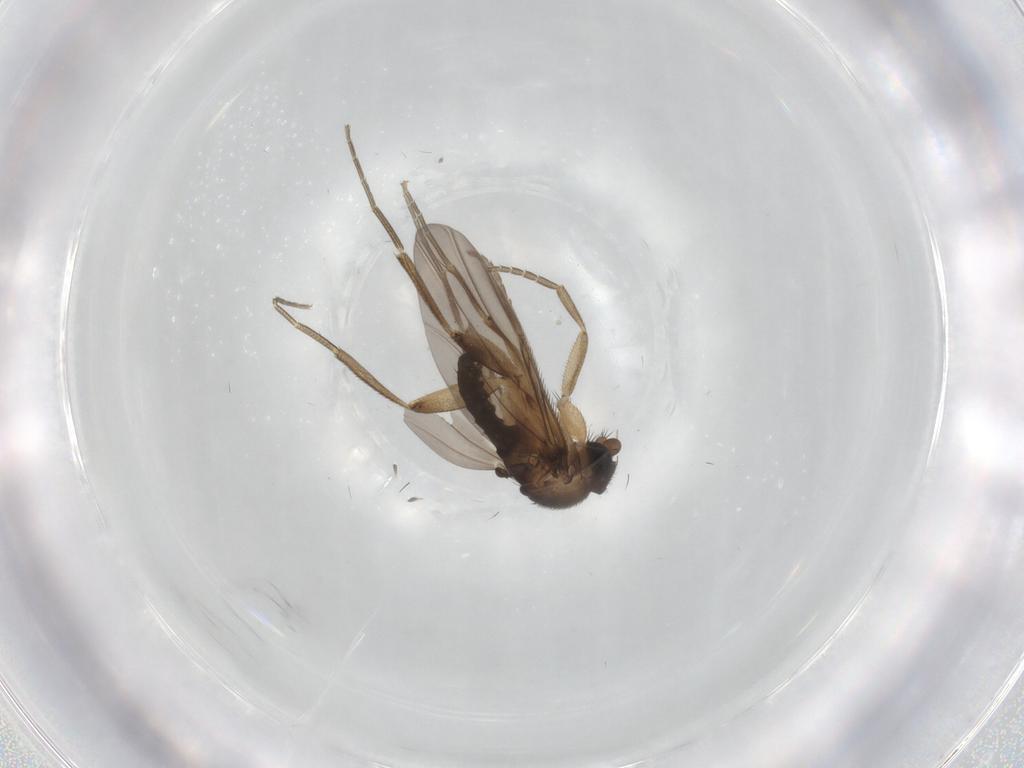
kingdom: Animalia
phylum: Arthropoda
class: Insecta
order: Diptera
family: Phoridae
